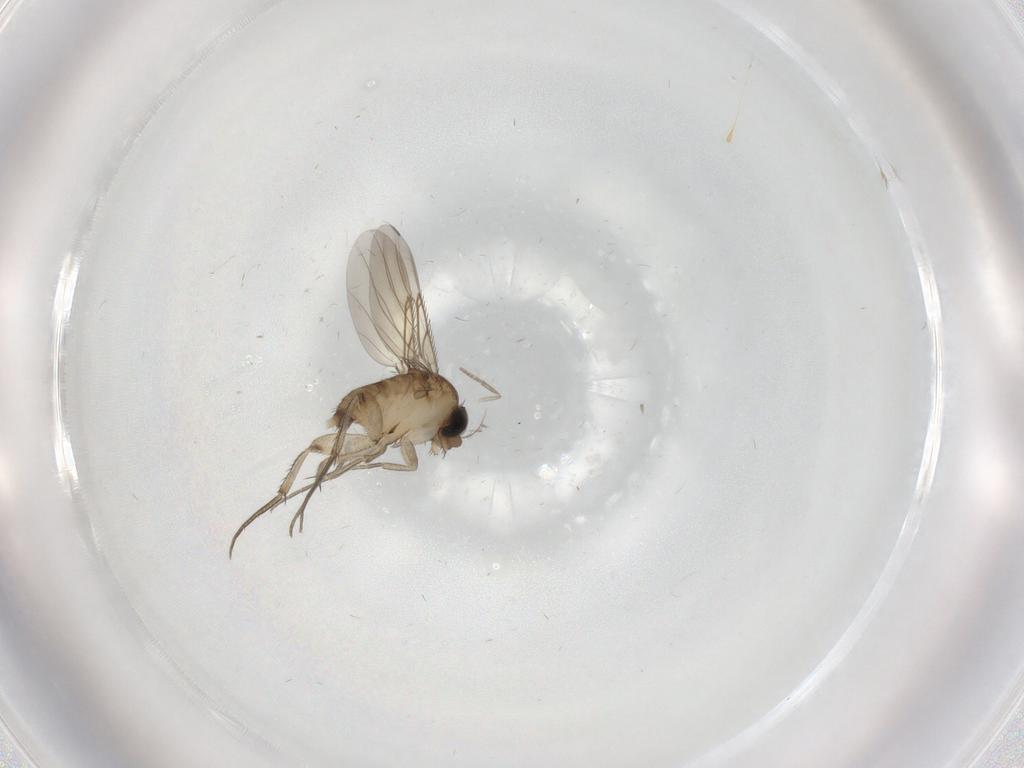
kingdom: Animalia
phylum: Arthropoda
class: Insecta
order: Diptera
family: Phoridae
